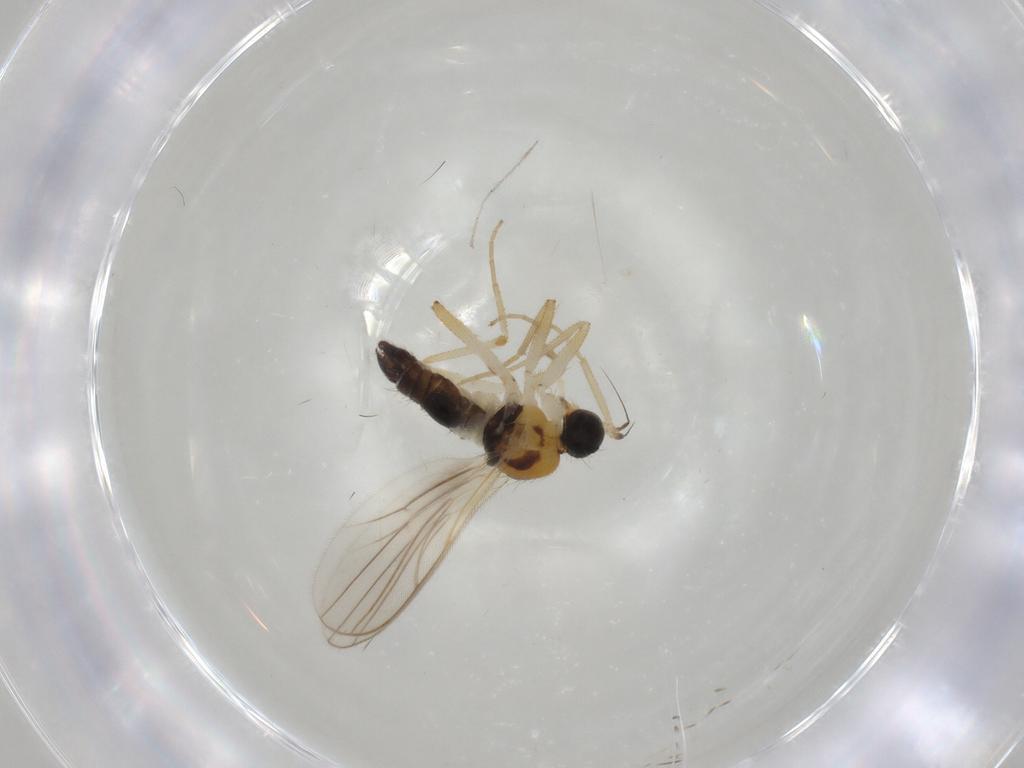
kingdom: Animalia
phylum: Arthropoda
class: Insecta
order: Diptera
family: Hybotidae
